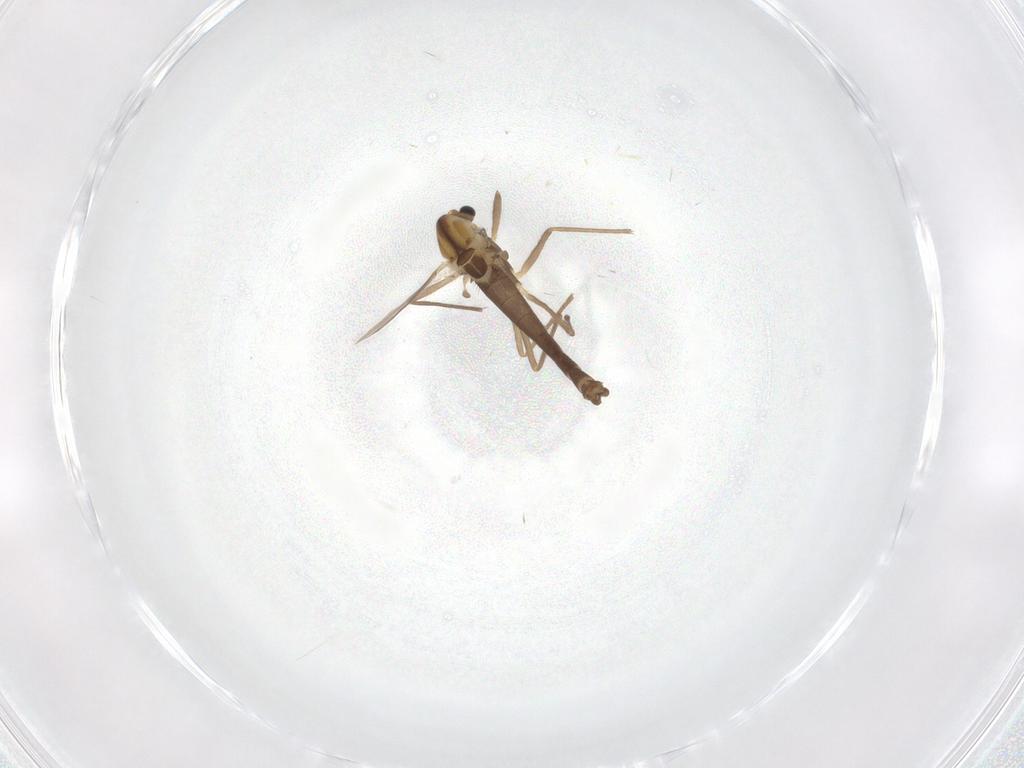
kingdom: Animalia
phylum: Arthropoda
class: Insecta
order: Diptera
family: Chironomidae
